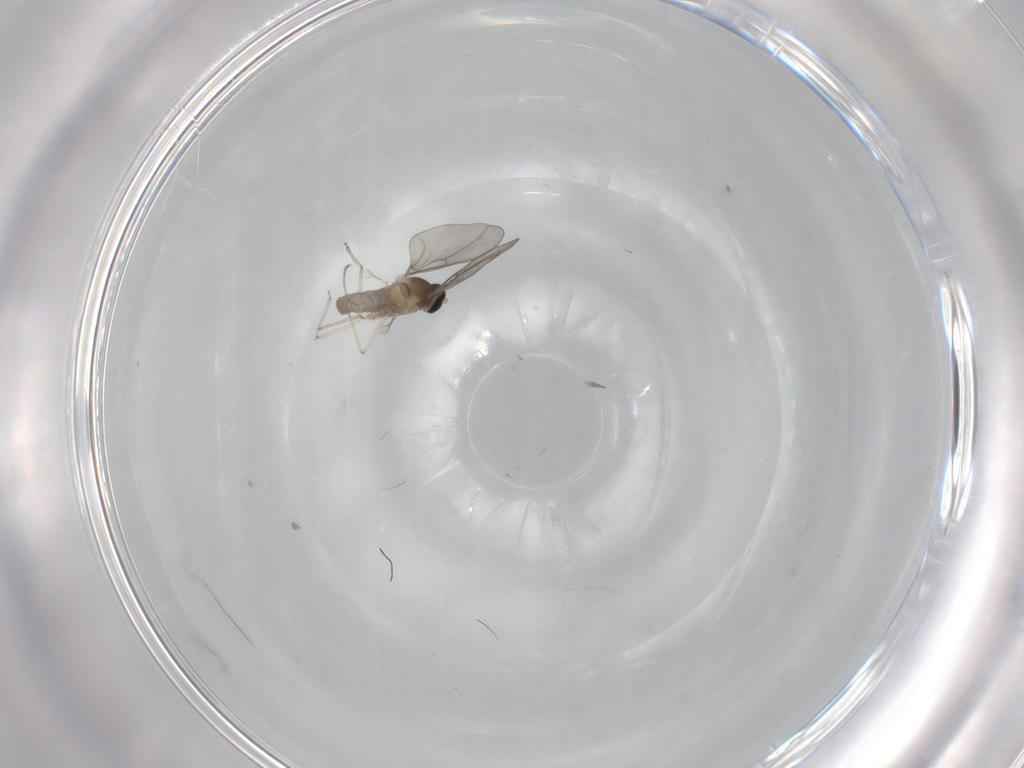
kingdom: Animalia
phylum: Arthropoda
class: Insecta
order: Diptera
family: Cecidomyiidae
